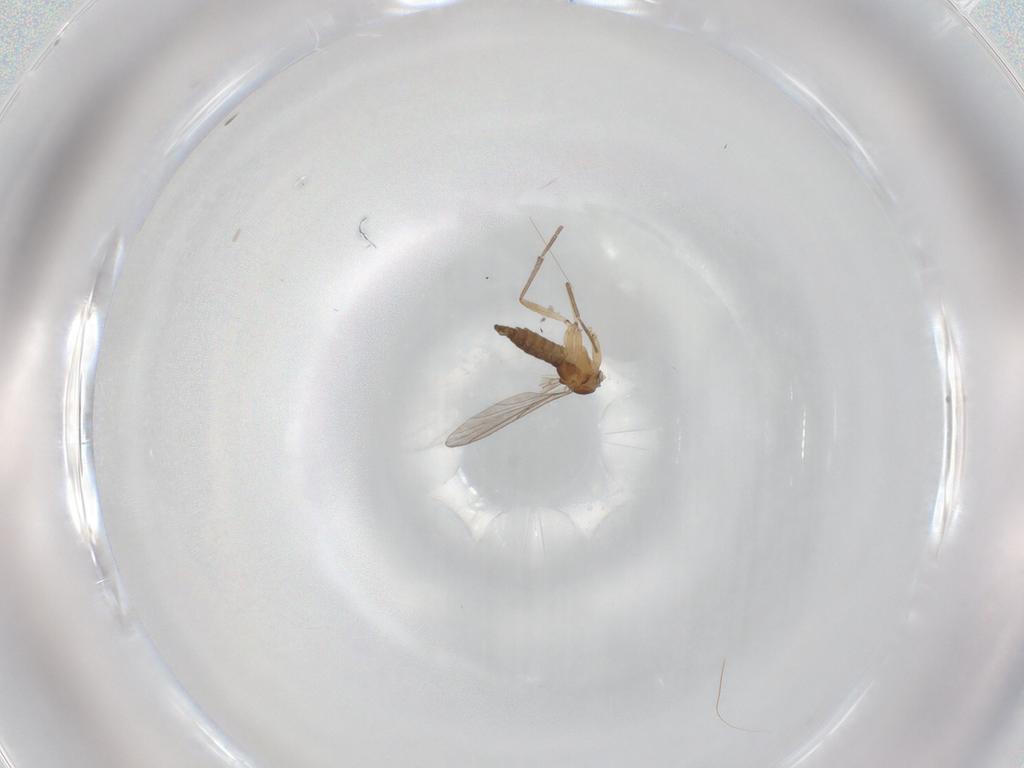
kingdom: Animalia
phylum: Arthropoda
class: Insecta
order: Diptera
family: Sciaridae
